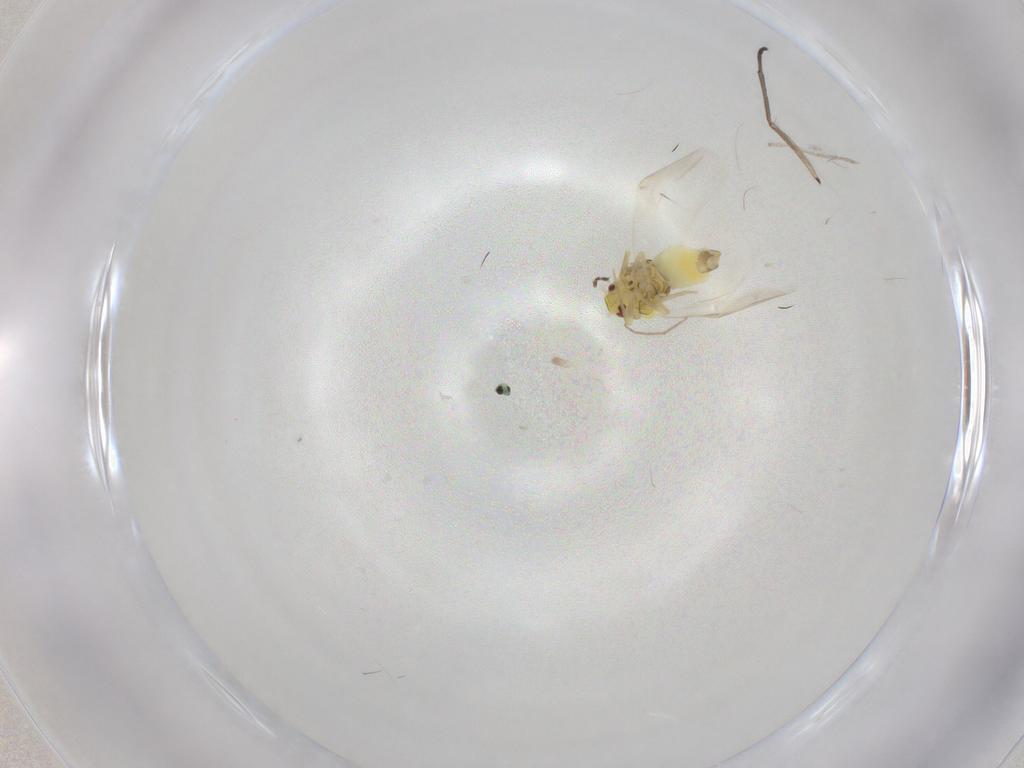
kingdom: Animalia
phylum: Arthropoda
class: Insecta
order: Hemiptera
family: Aleyrodidae
